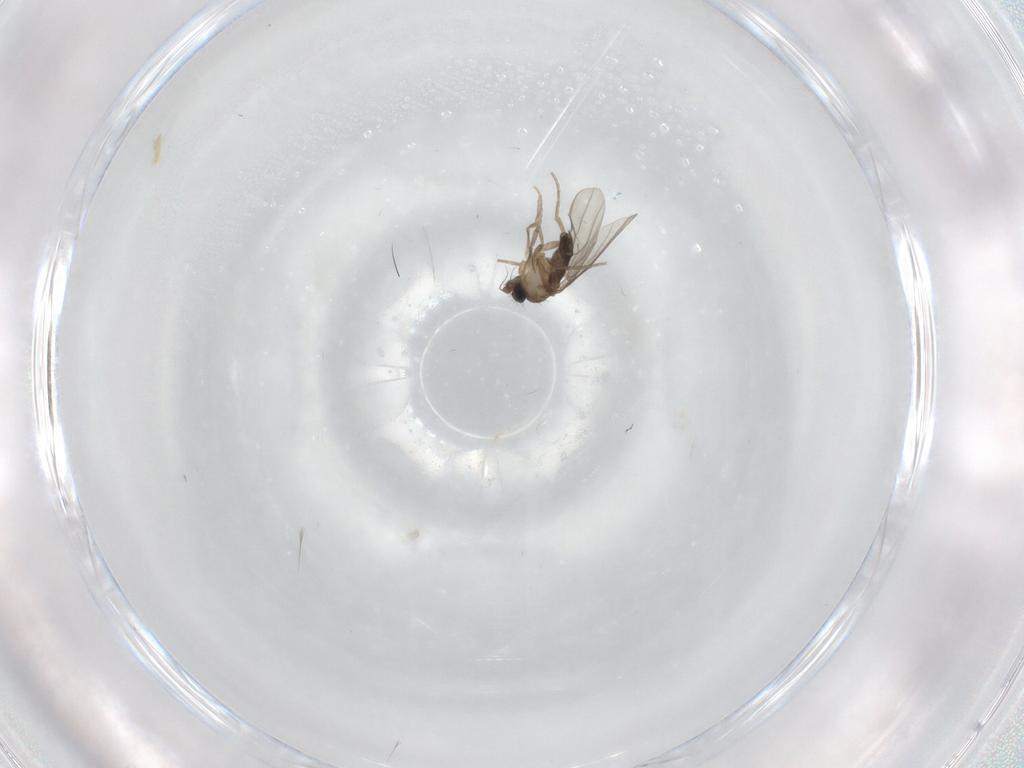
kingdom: Animalia
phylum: Arthropoda
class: Insecta
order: Diptera
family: Cecidomyiidae
